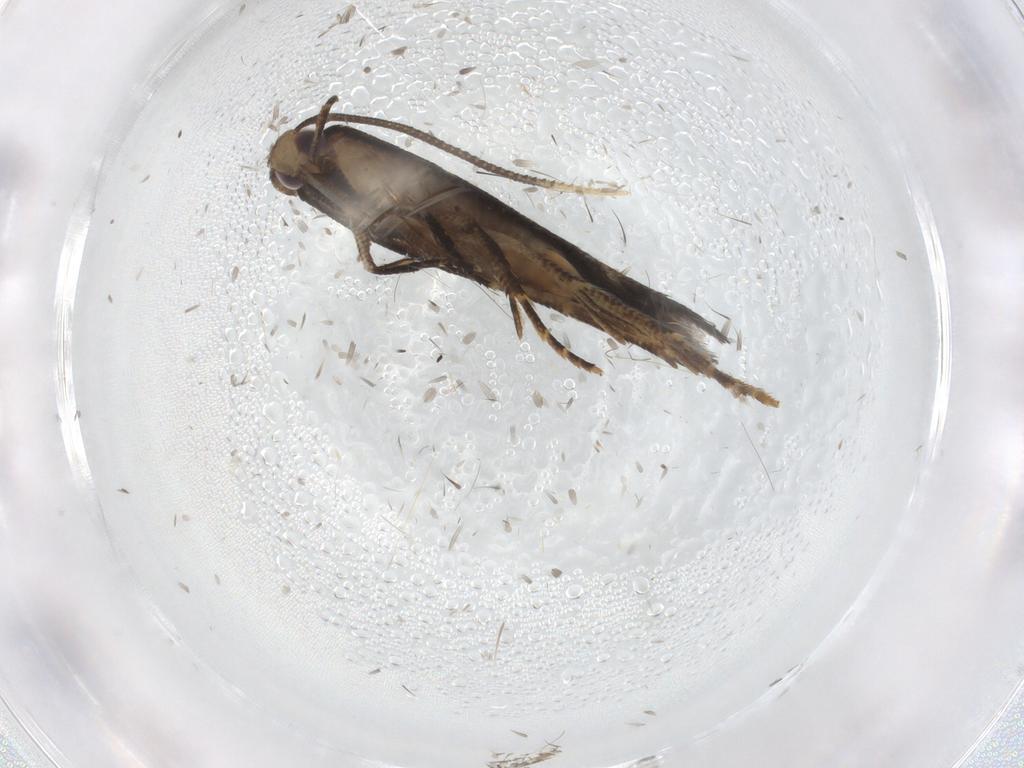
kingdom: Animalia
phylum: Arthropoda
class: Insecta
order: Lepidoptera
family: Cosmopterigidae
